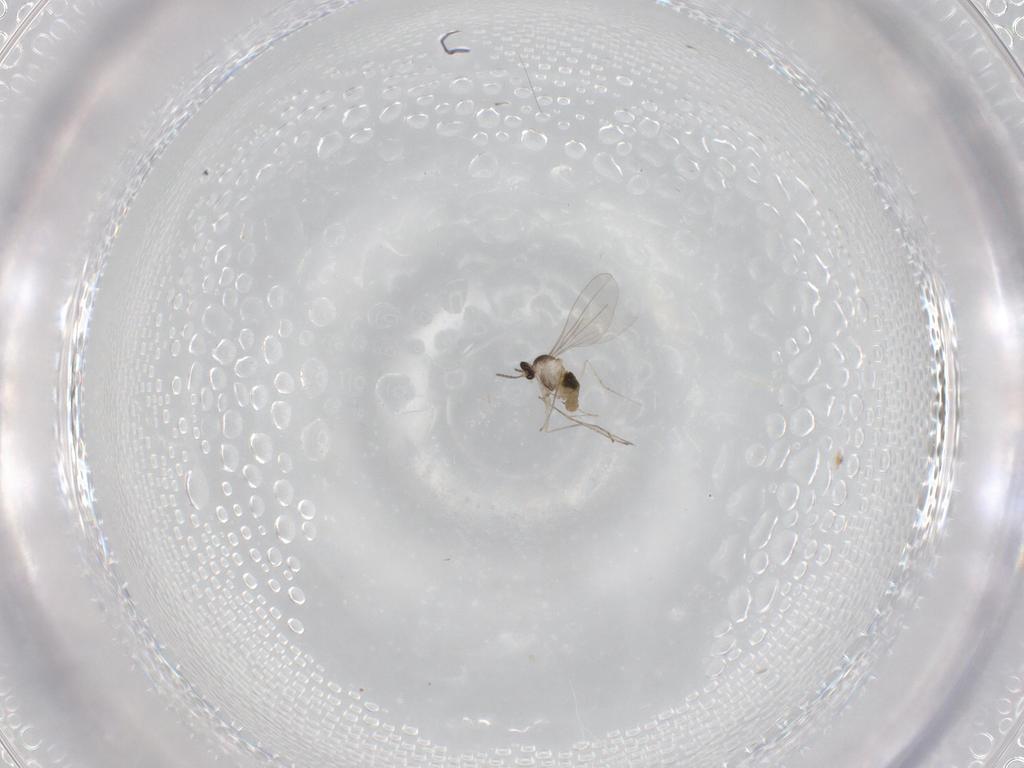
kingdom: Animalia
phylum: Arthropoda
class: Insecta
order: Diptera
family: Cecidomyiidae
